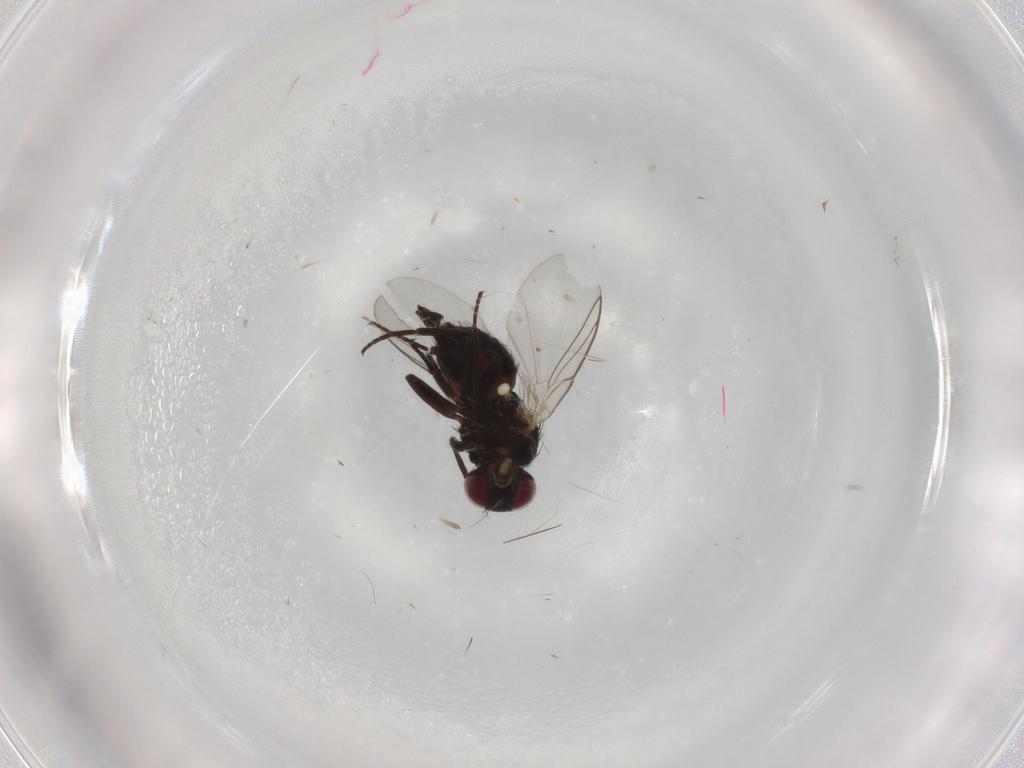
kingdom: Animalia
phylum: Arthropoda
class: Insecta
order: Diptera
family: Agromyzidae
